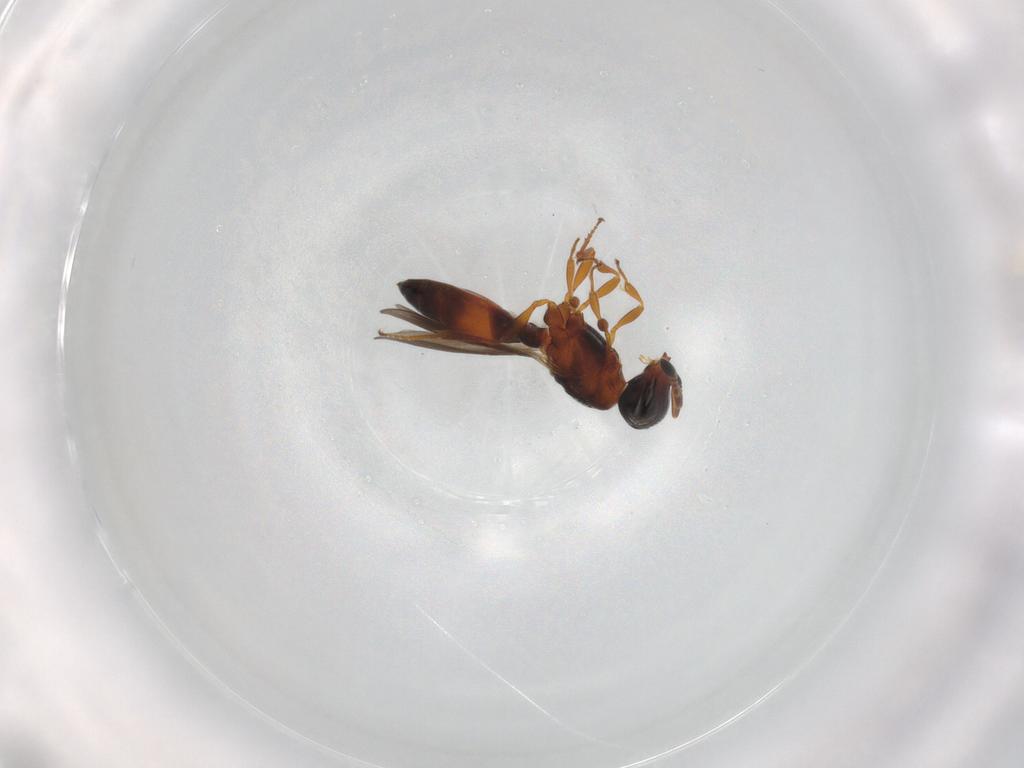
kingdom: Animalia
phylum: Arthropoda
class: Insecta
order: Hymenoptera
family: Scelionidae
